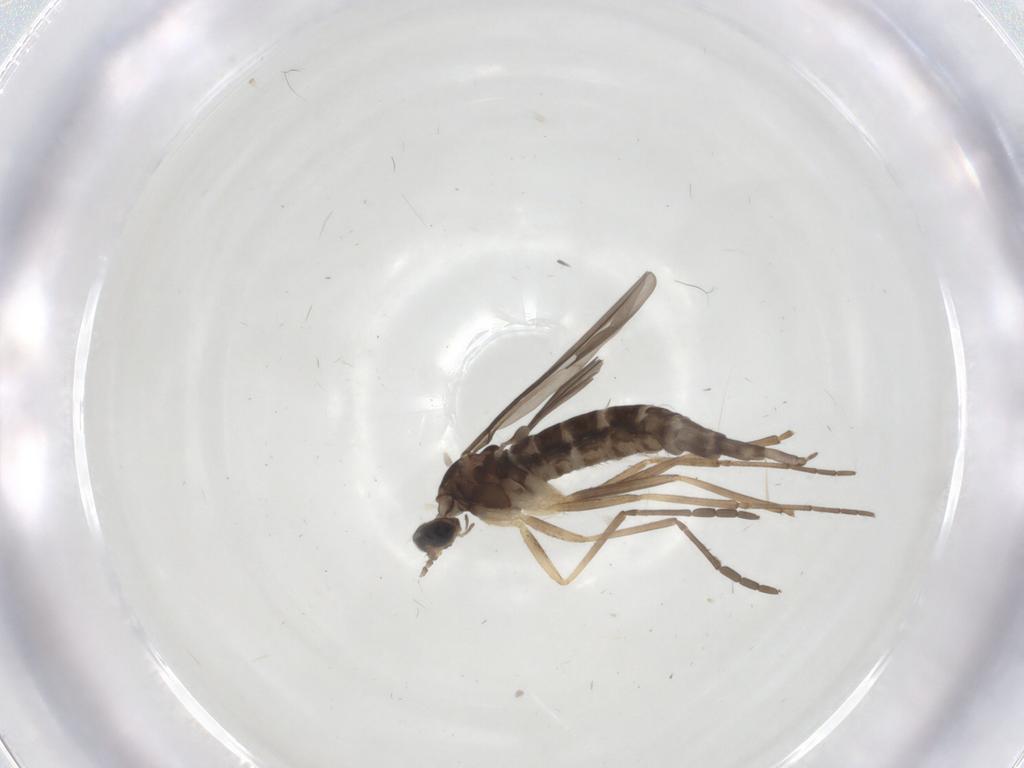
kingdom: Animalia
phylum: Arthropoda
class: Insecta
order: Diptera
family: Cecidomyiidae
